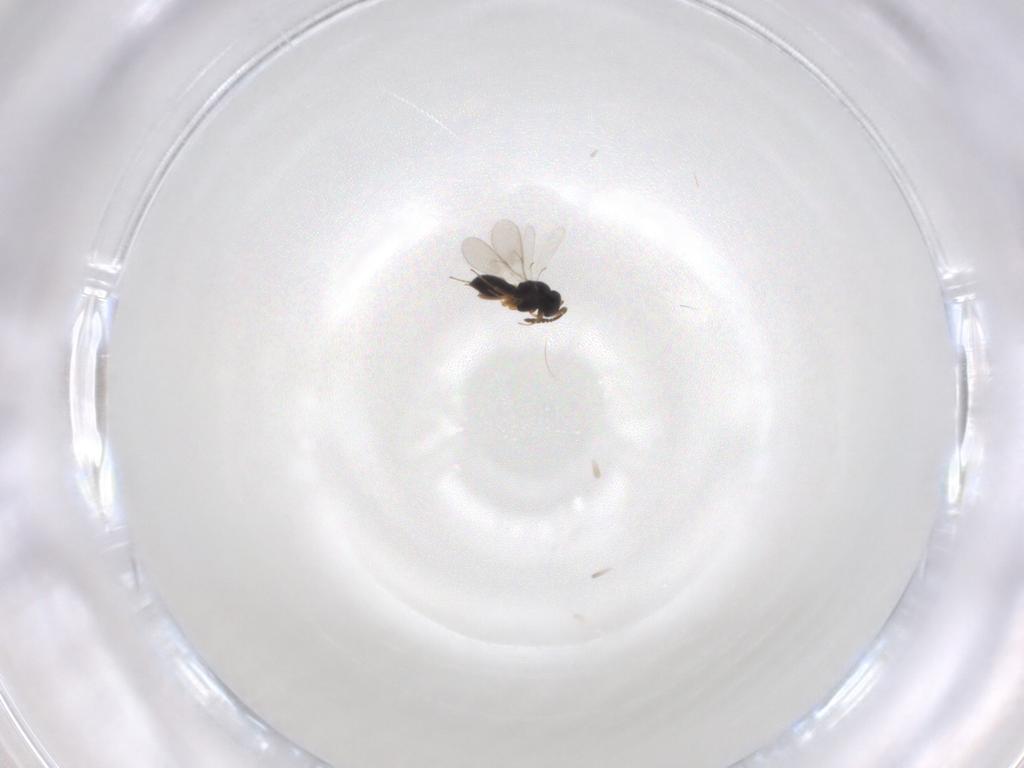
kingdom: Animalia
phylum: Arthropoda
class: Insecta
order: Hymenoptera
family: Scelionidae
